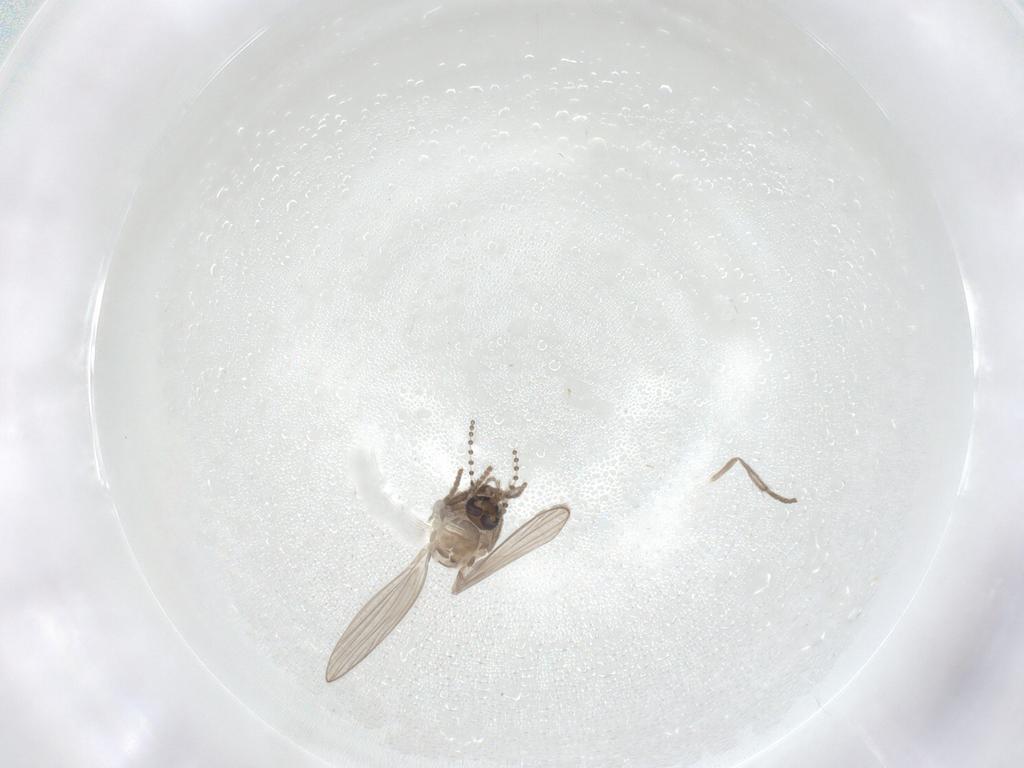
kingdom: Animalia
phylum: Arthropoda
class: Insecta
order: Diptera
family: Psychodidae
